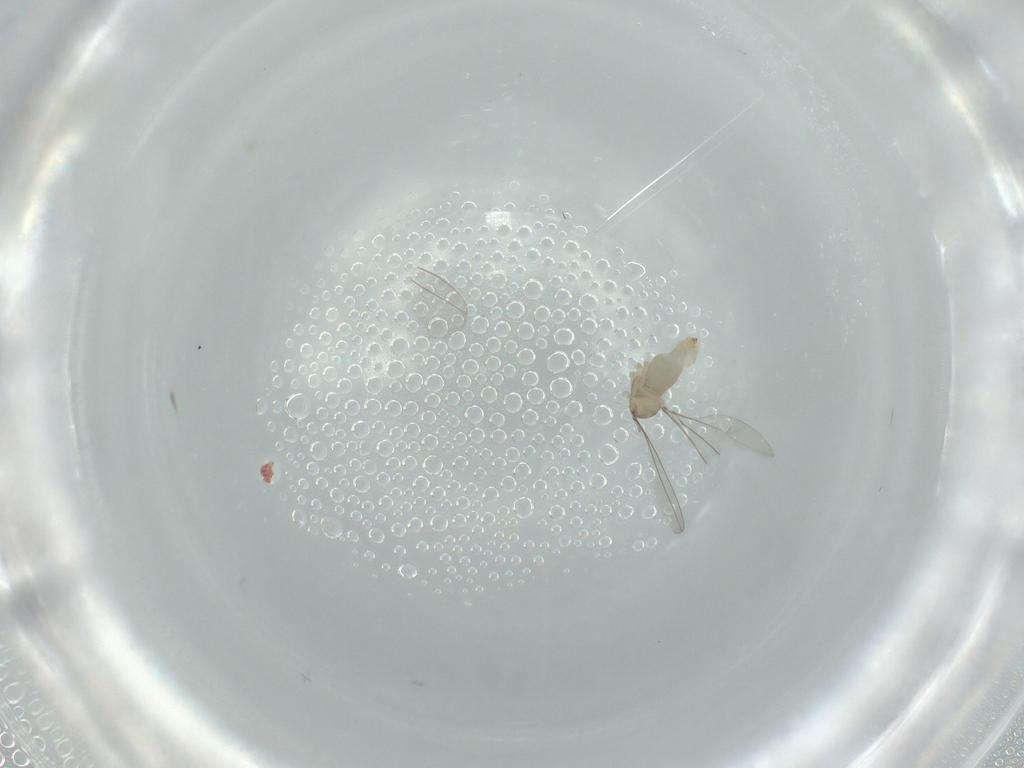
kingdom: Animalia
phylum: Arthropoda
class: Insecta
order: Diptera
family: Cecidomyiidae
